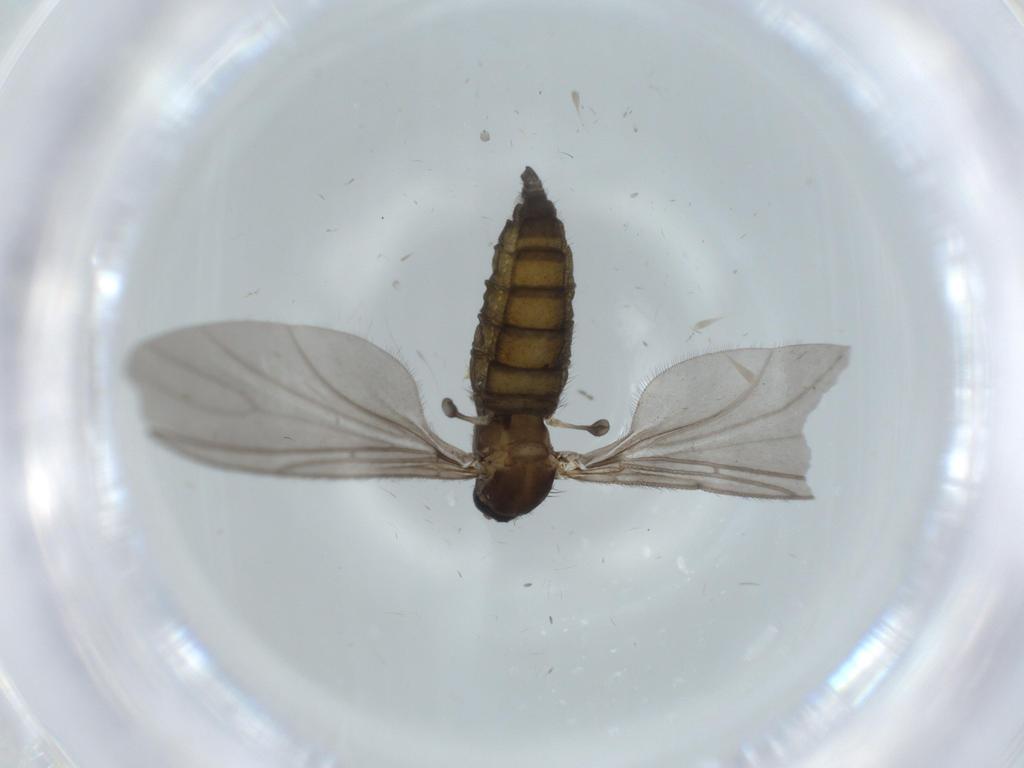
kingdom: Animalia
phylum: Arthropoda
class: Insecta
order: Diptera
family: Sciaridae
